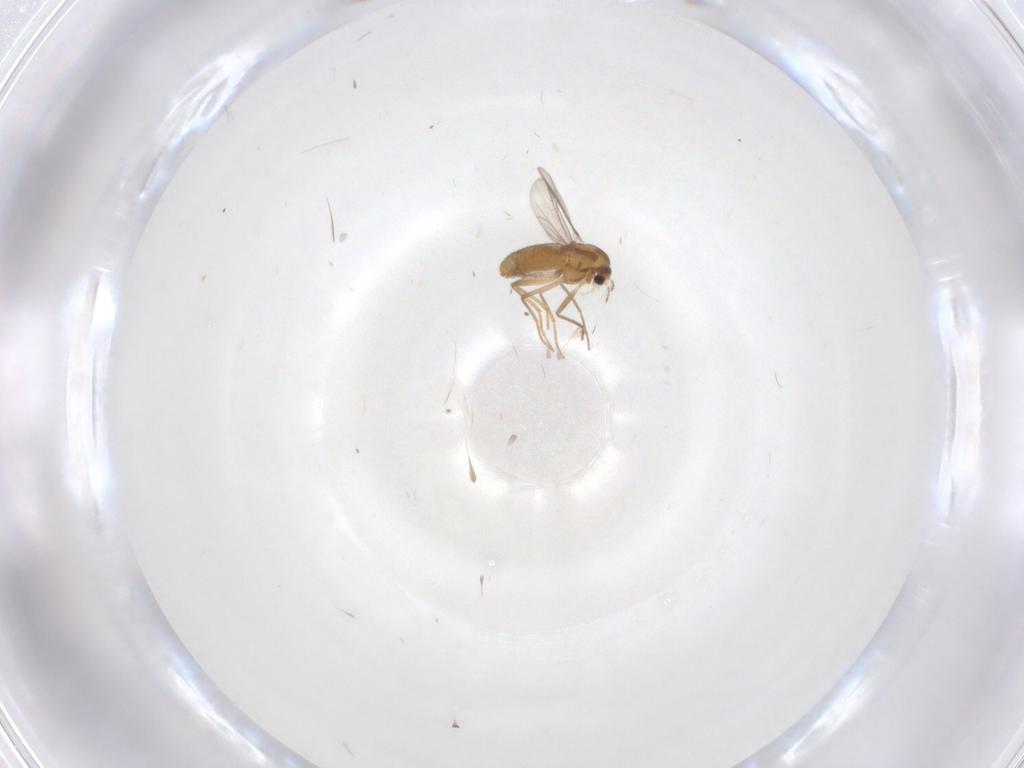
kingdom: Animalia
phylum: Arthropoda
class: Insecta
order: Diptera
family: Chironomidae
